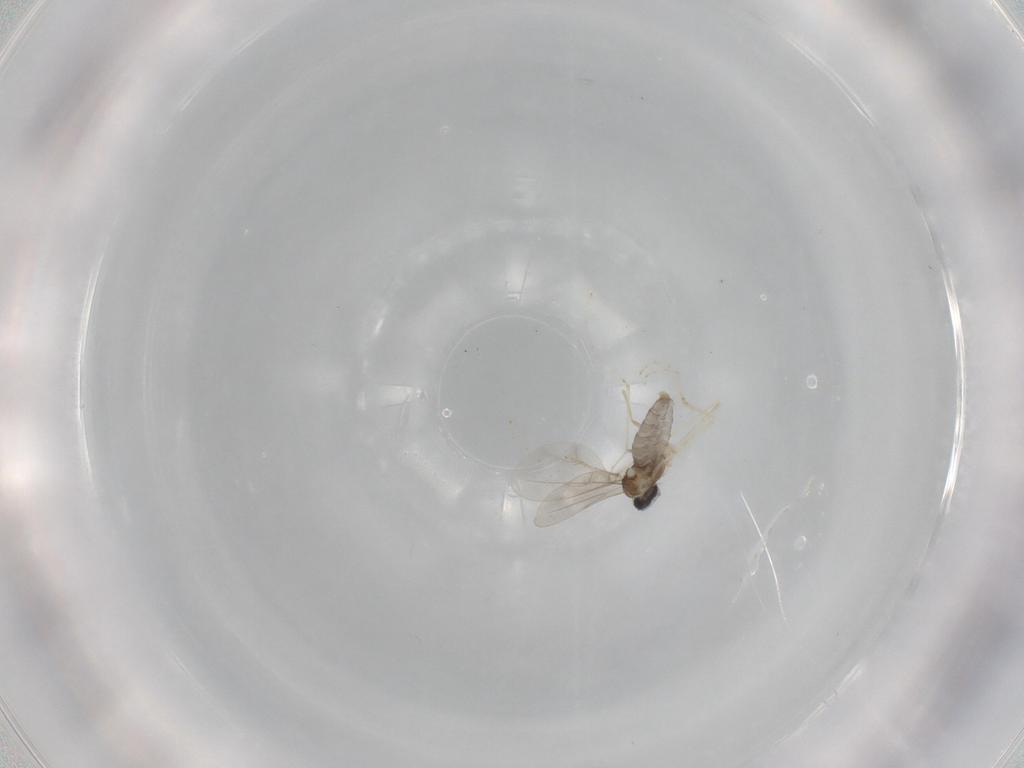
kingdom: Animalia
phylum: Arthropoda
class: Insecta
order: Diptera
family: Cecidomyiidae
